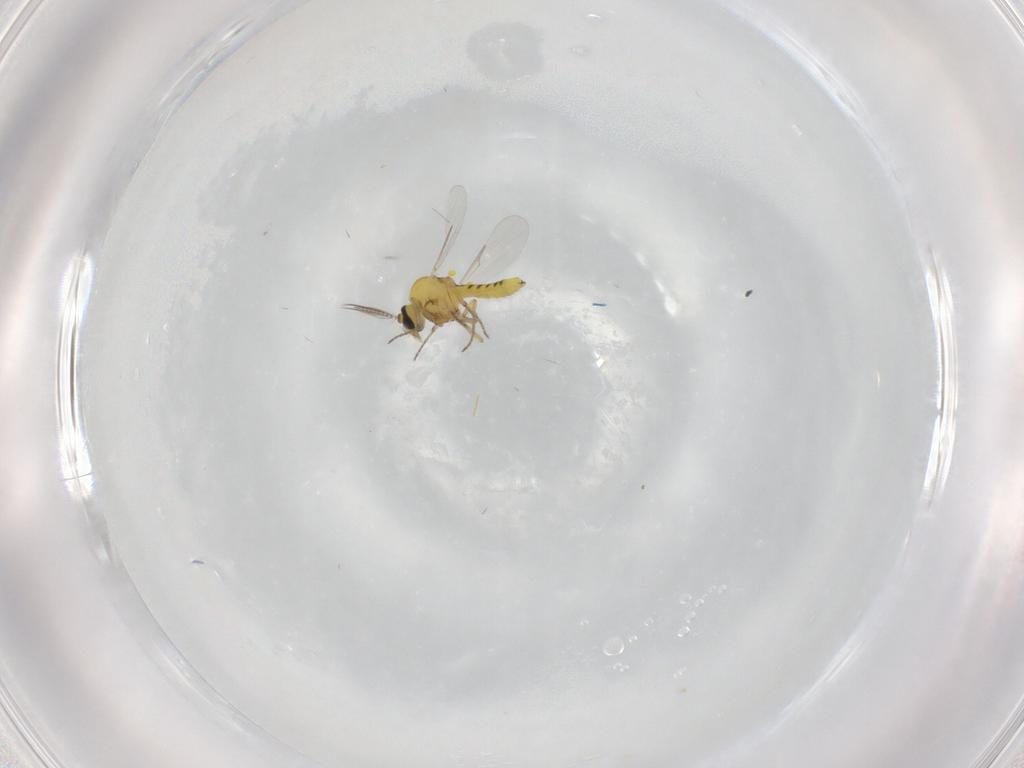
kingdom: Animalia
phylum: Arthropoda
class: Insecta
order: Diptera
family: Ceratopogonidae
